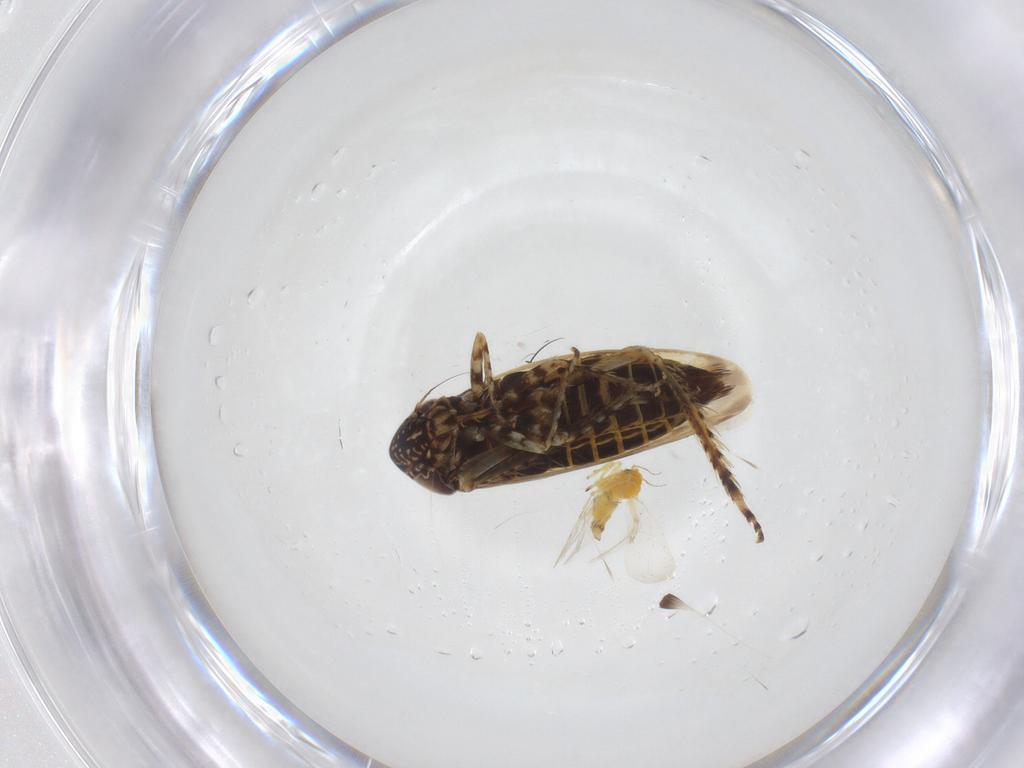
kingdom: Animalia
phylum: Arthropoda
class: Insecta
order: Hemiptera
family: Aleyrodidae
